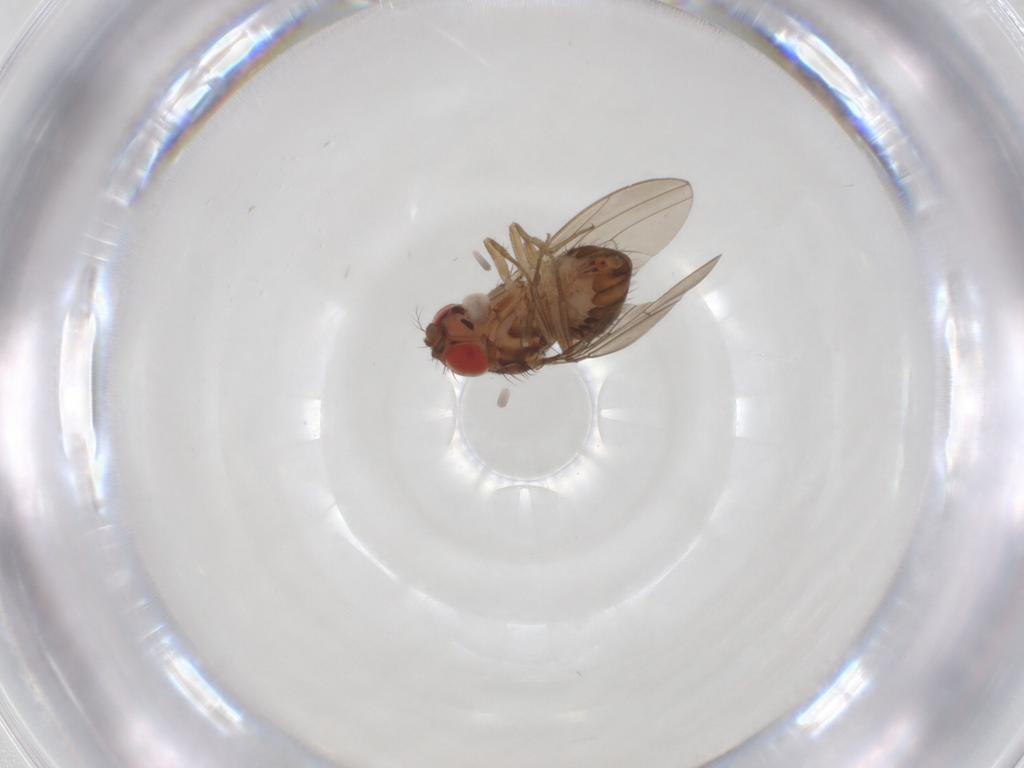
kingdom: Animalia
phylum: Arthropoda
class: Insecta
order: Diptera
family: Drosophilidae
